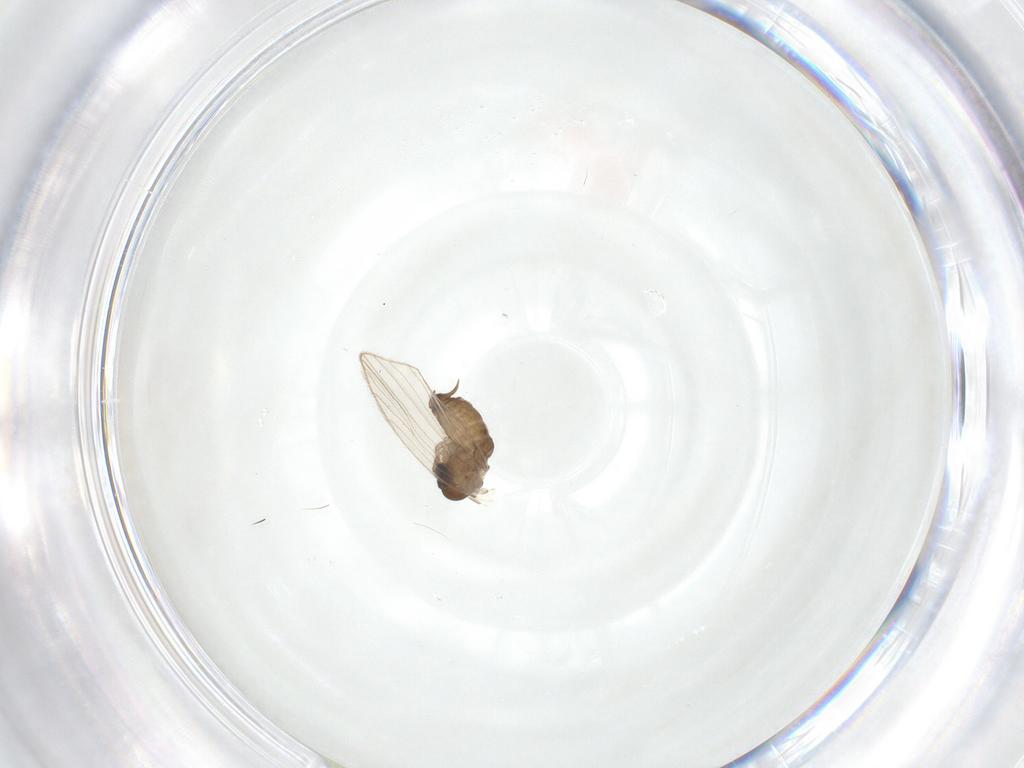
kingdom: Animalia
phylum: Arthropoda
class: Insecta
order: Diptera
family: Psychodidae
